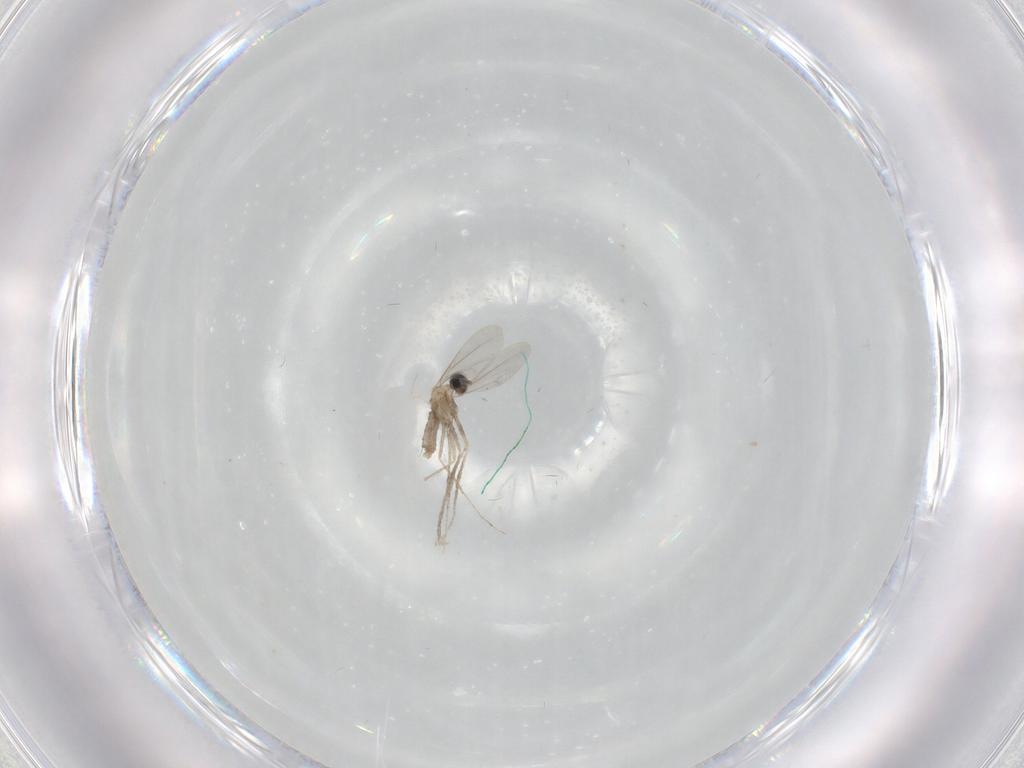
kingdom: Animalia
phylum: Arthropoda
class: Insecta
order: Diptera
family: Cecidomyiidae
